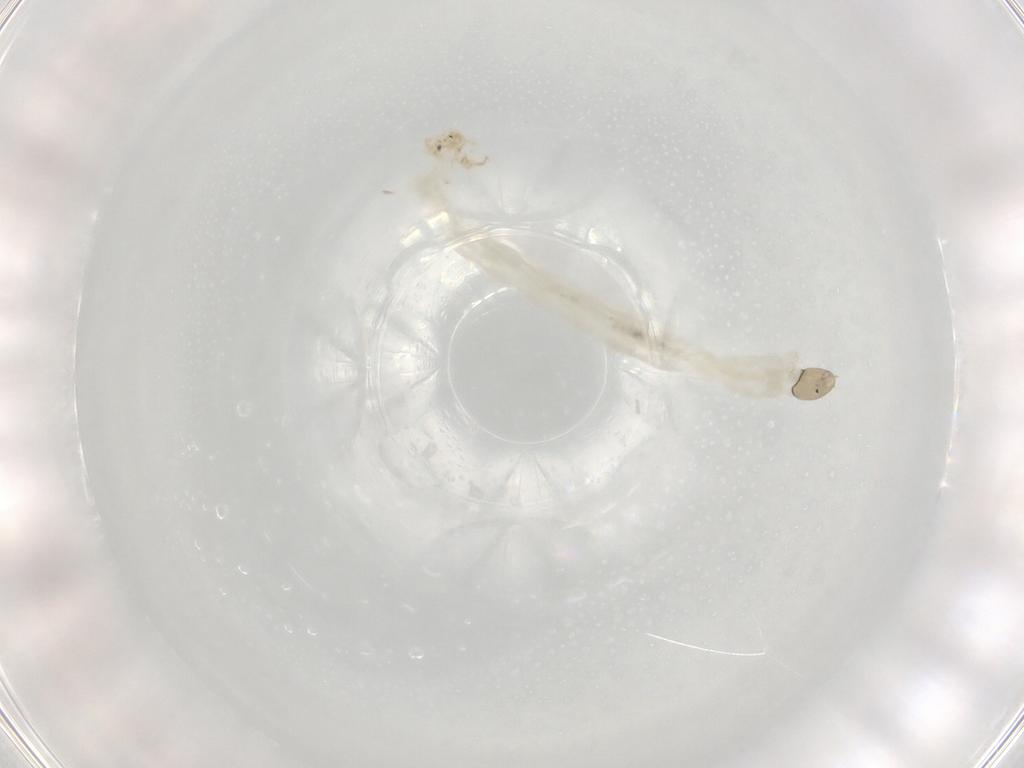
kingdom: Animalia
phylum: Arthropoda
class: Insecta
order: Diptera
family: Chironomidae
